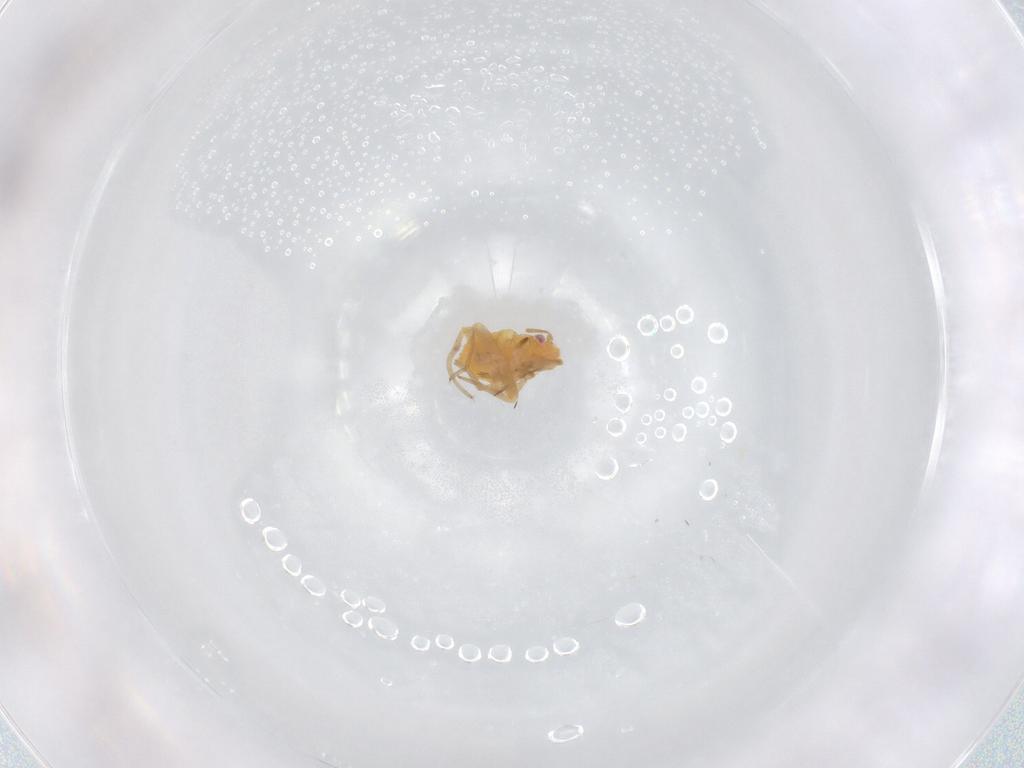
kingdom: Animalia
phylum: Arthropoda
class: Insecta
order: Hemiptera
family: Miridae
